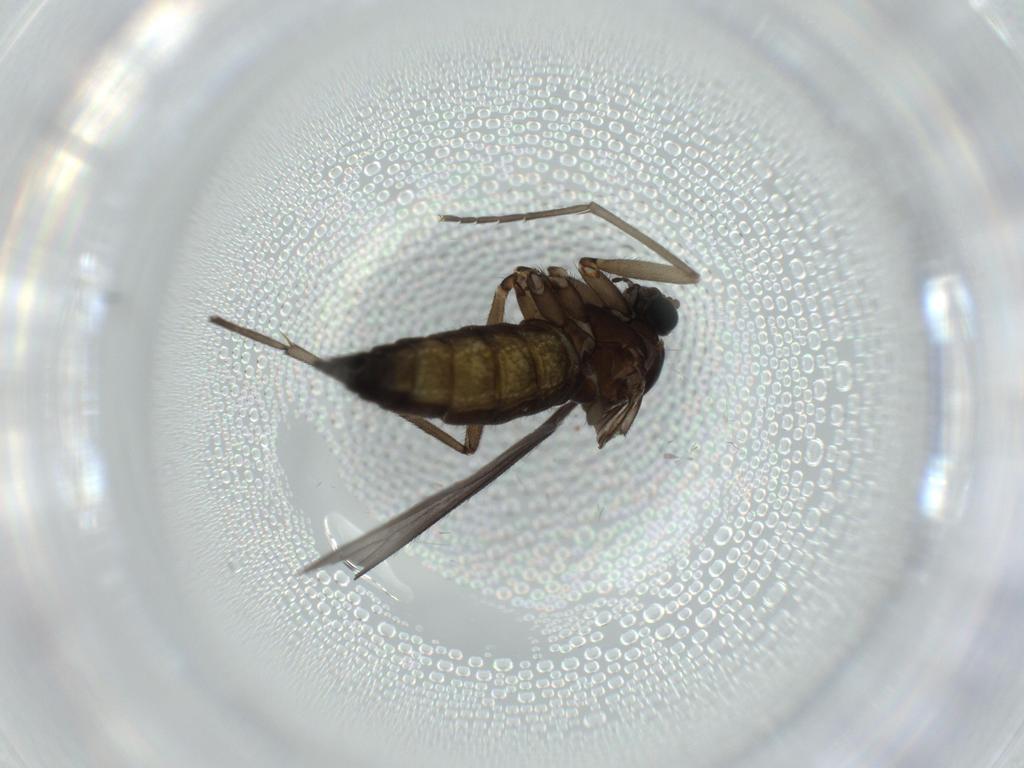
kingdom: Animalia
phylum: Arthropoda
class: Insecta
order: Diptera
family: Sciaridae
